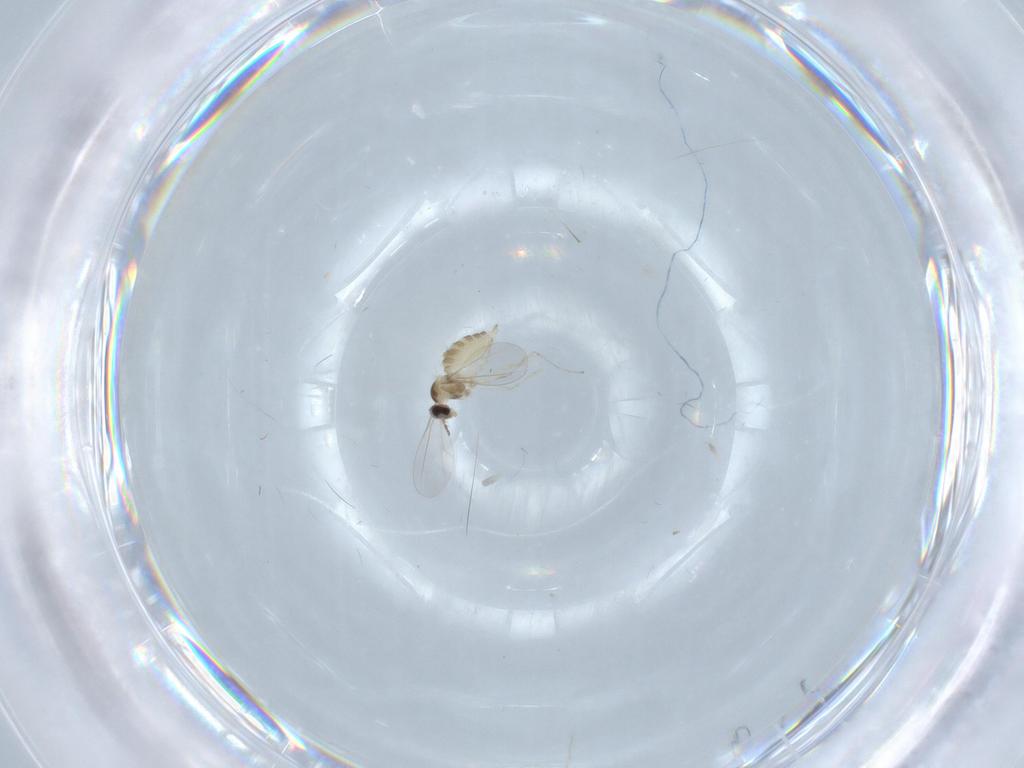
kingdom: Animalia
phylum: Arthropoda
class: Insecta
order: Diptera
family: Cecidomyiidae
